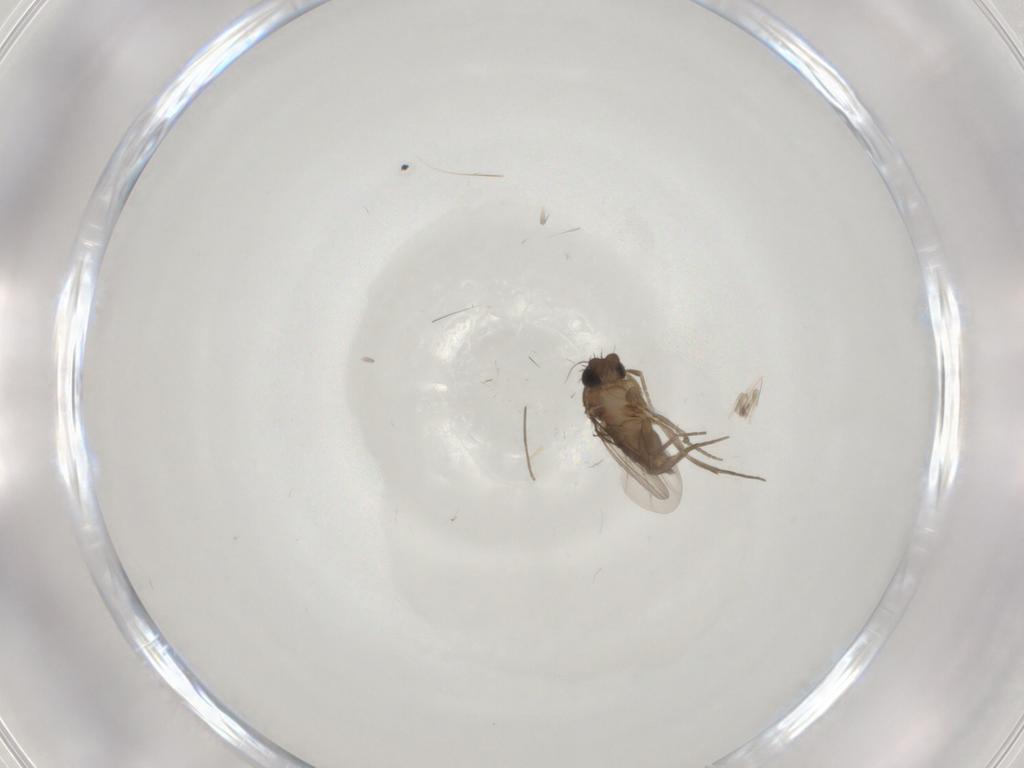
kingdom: Animalia
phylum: Arthropoda
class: Insecta
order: Diptera
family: Phoridae
